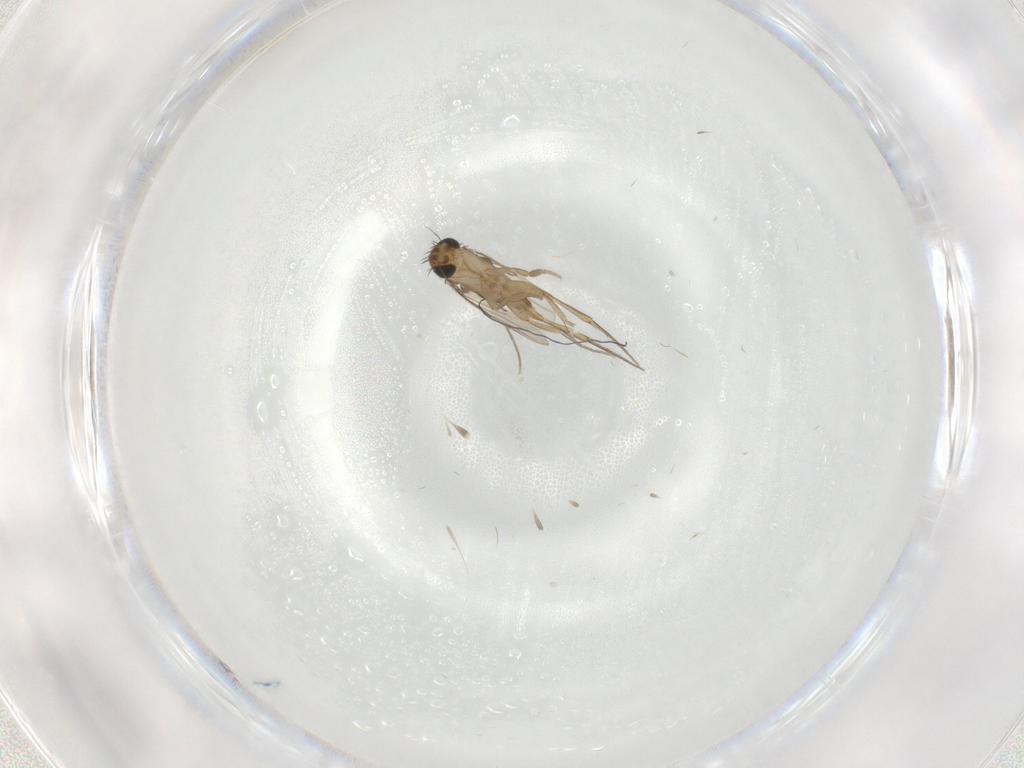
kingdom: Animalia
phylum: Arthropoda
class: Insecta
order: Diptera
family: Phoridae
